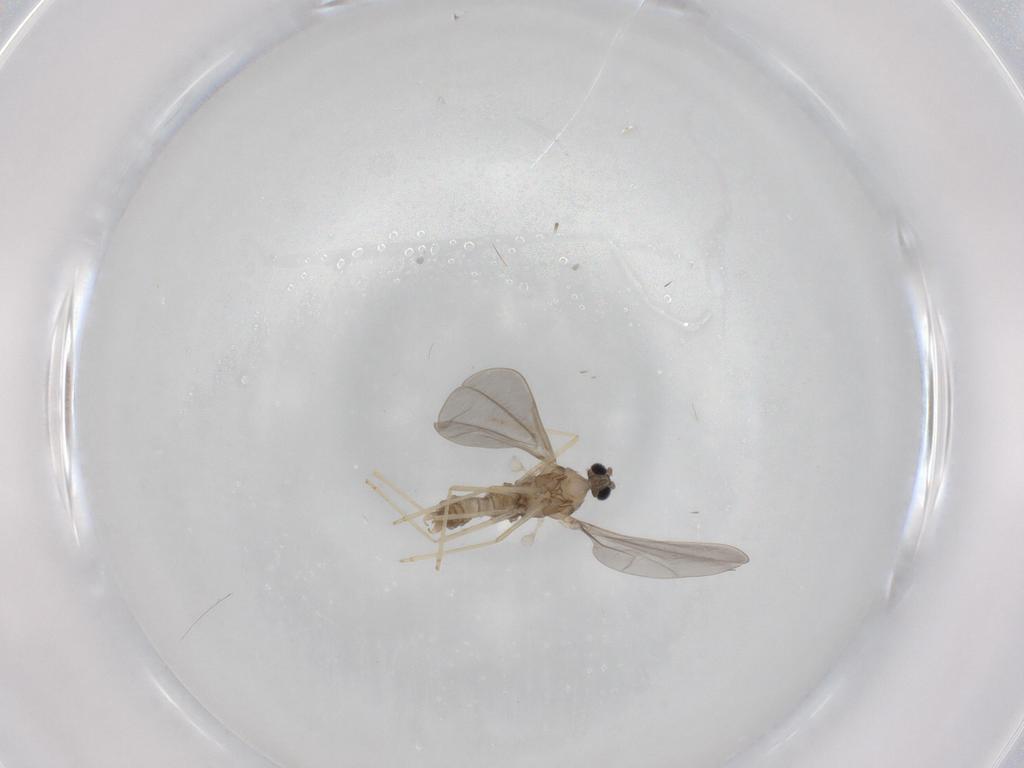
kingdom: Animalia
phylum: Arthropoda
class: Insecta
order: Diptera
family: Cecidomyiidae
